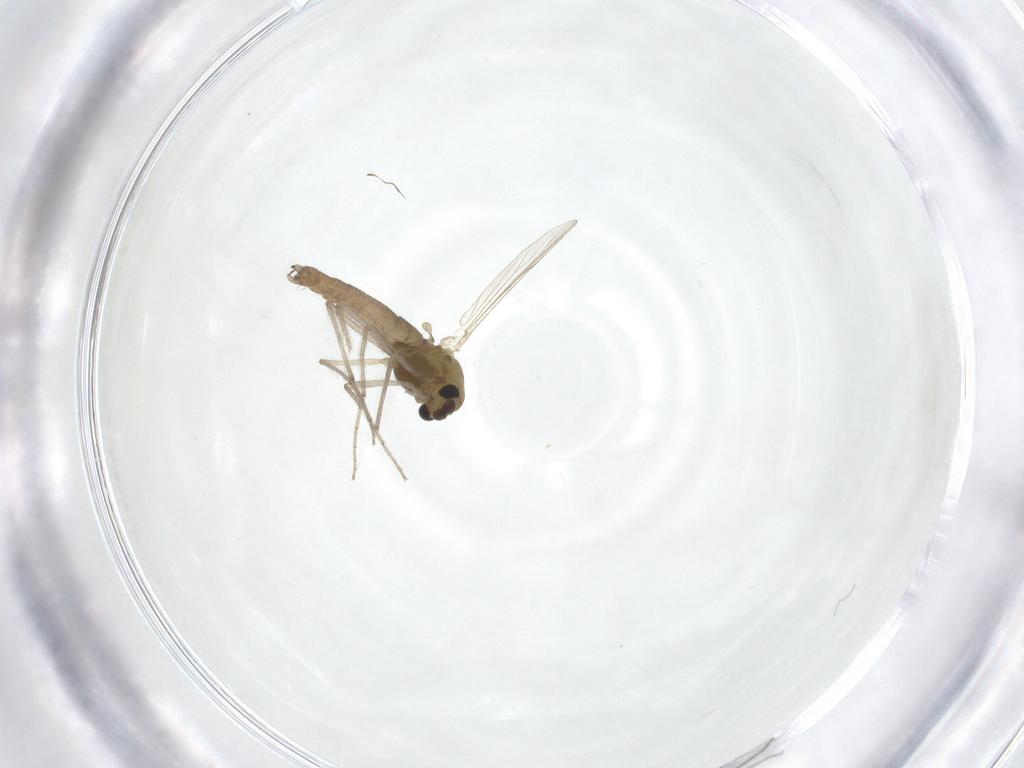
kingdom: Animalia
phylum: Arthropoda
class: Insecta
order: Diptera
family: Chironomidae
